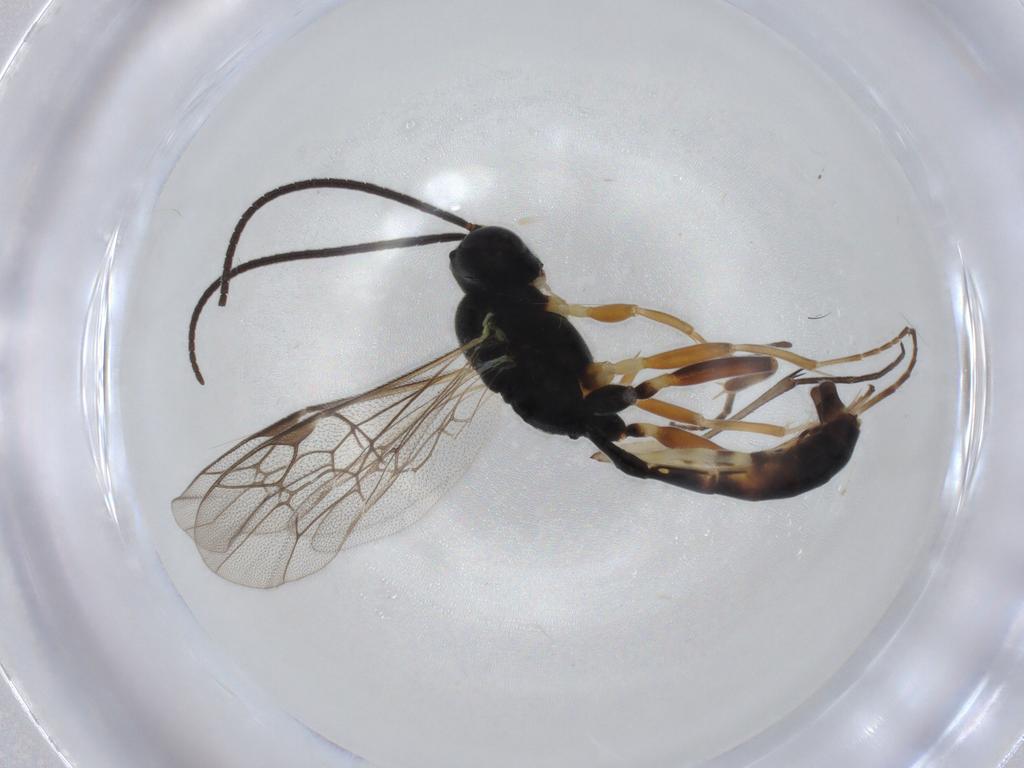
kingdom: Animalia
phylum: Arthropoda
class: Insecta
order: Hymenoptera
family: Ichneumonidae
